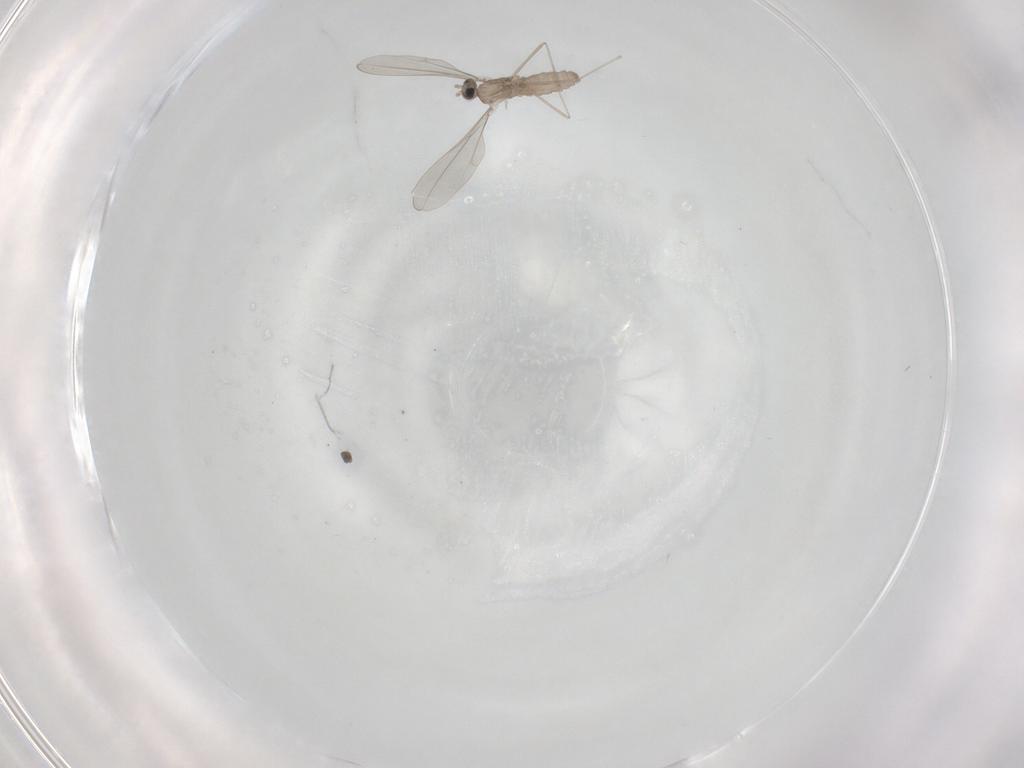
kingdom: Animalia
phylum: Arthropoda
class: Insecta
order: Diptera
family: Cecidomyiidae
